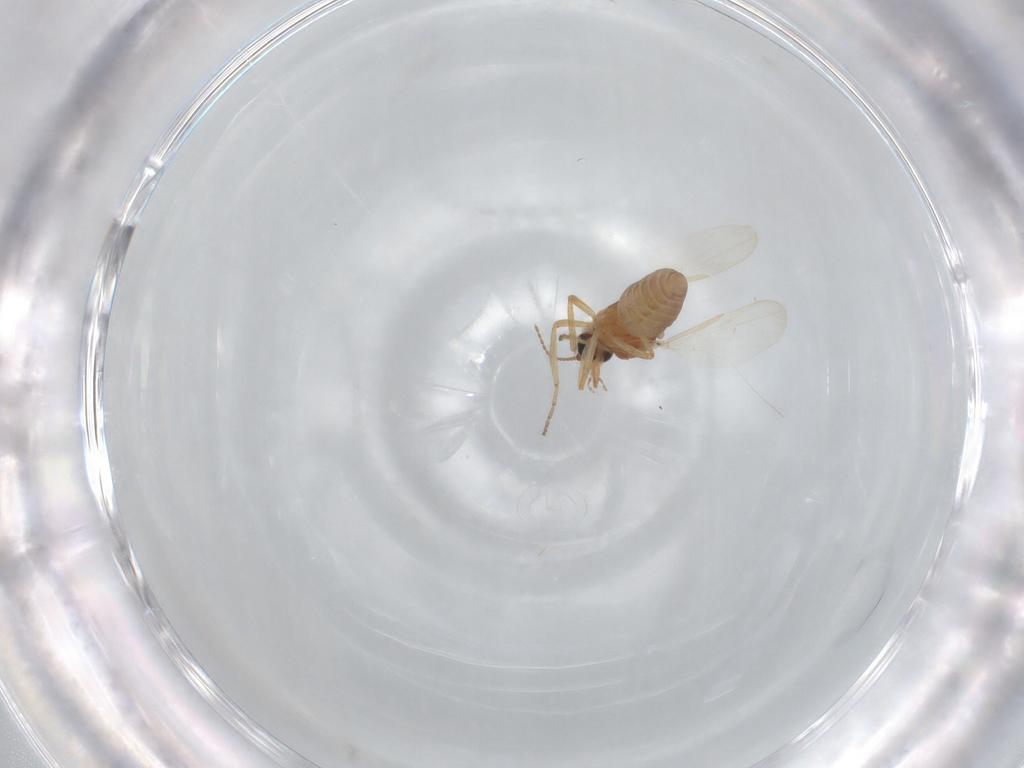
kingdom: Animalia
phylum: Arthropoda
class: Insecta
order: Diptera
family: Ceratopogonidae
